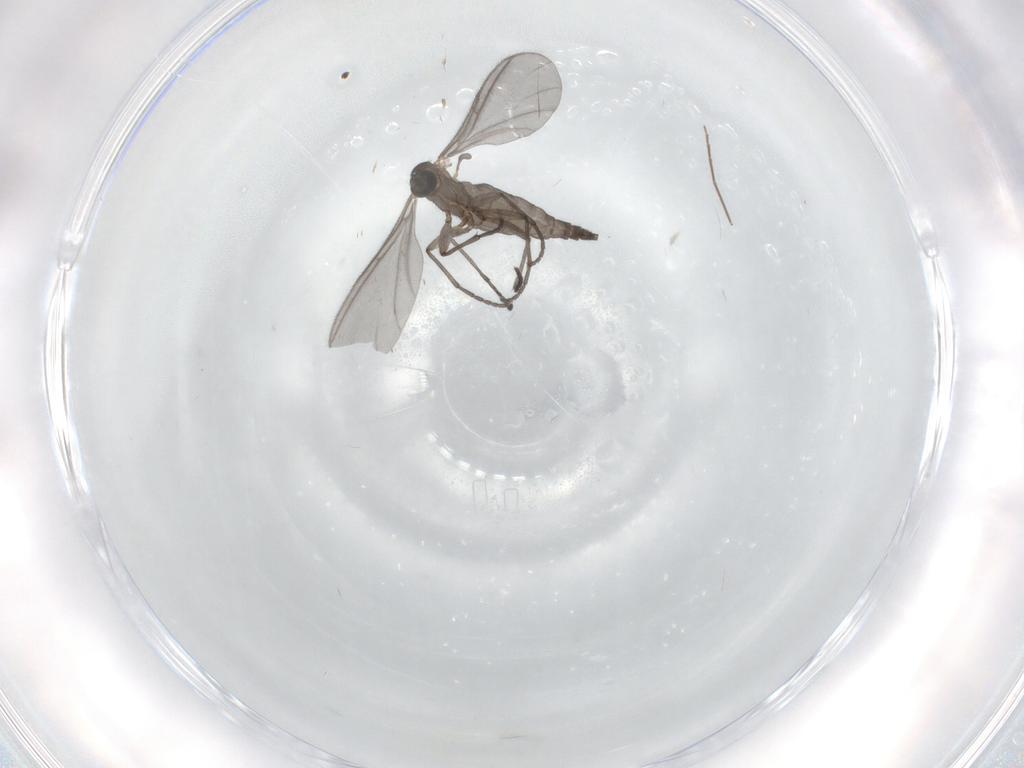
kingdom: Animalia
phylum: Arthropoda
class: Insecta
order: Diptera
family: Sciaridae
